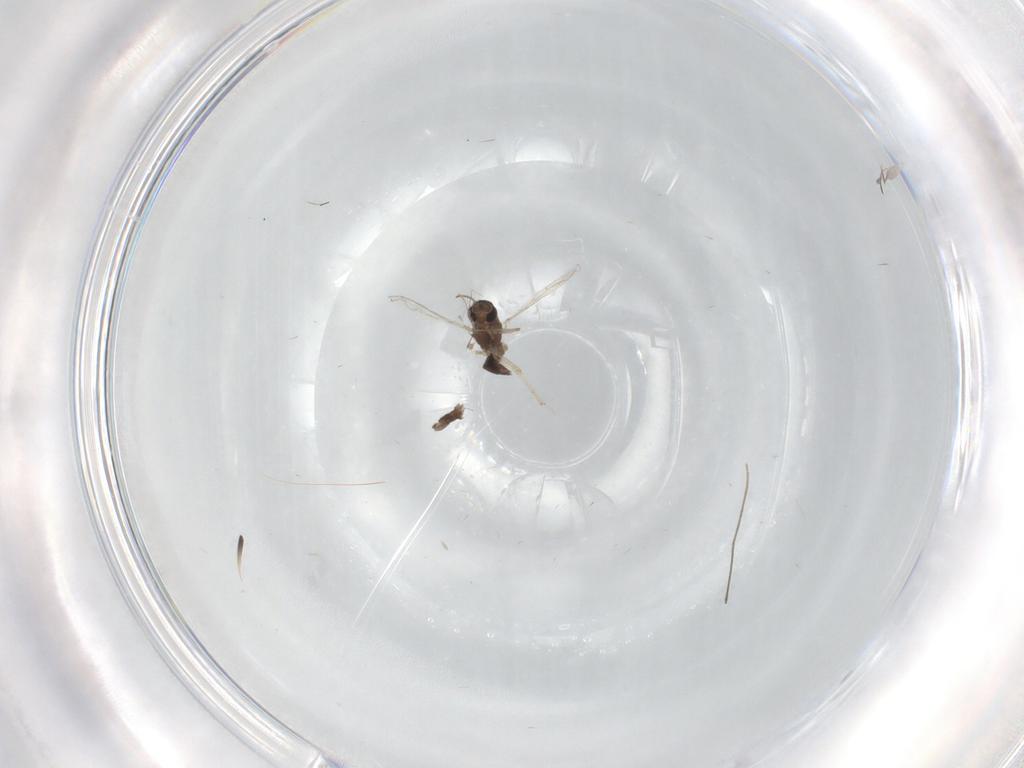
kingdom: Animalia
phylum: Arthropoda
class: Insecta
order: Diptera
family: Chironomidae
